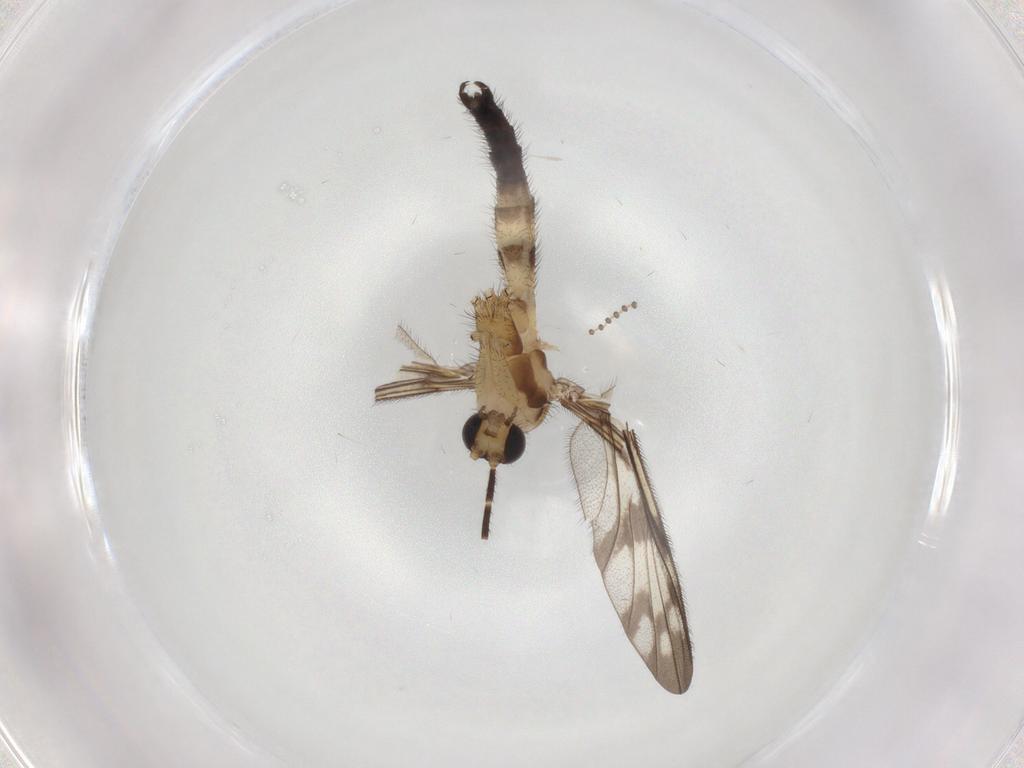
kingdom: Animalia
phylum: Arthropoda
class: Insecta
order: Diptera
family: Keroplatidae
